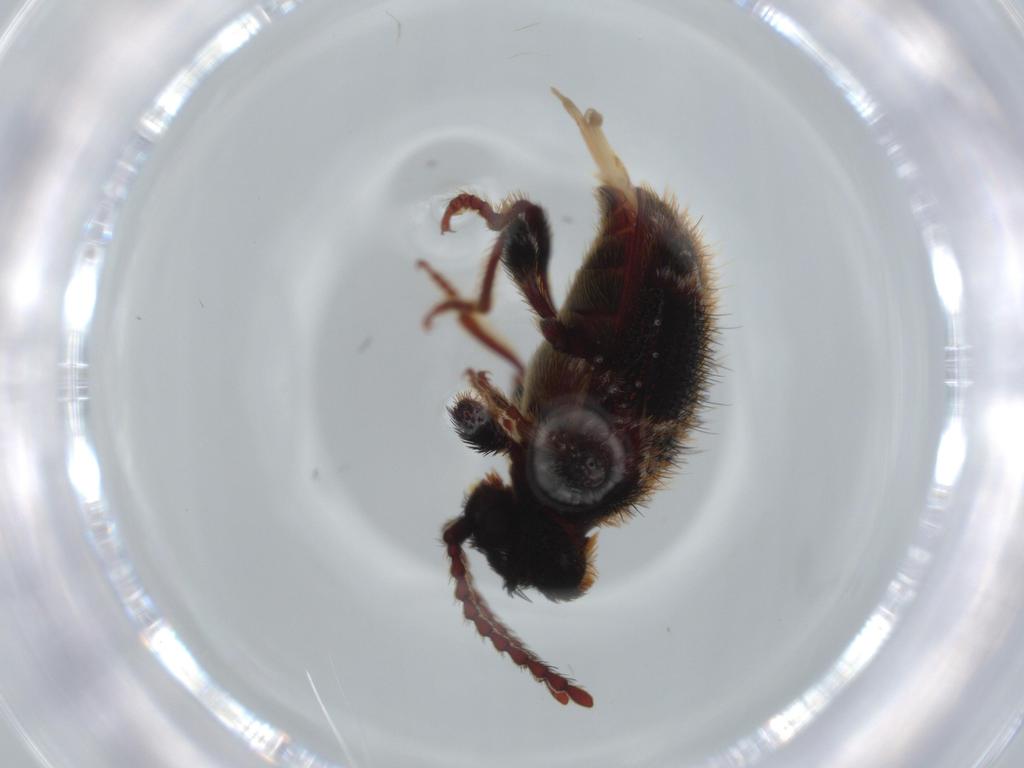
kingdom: Animalia
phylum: Arthropoda
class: Insecta
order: Coleoptera
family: Ptinidae
